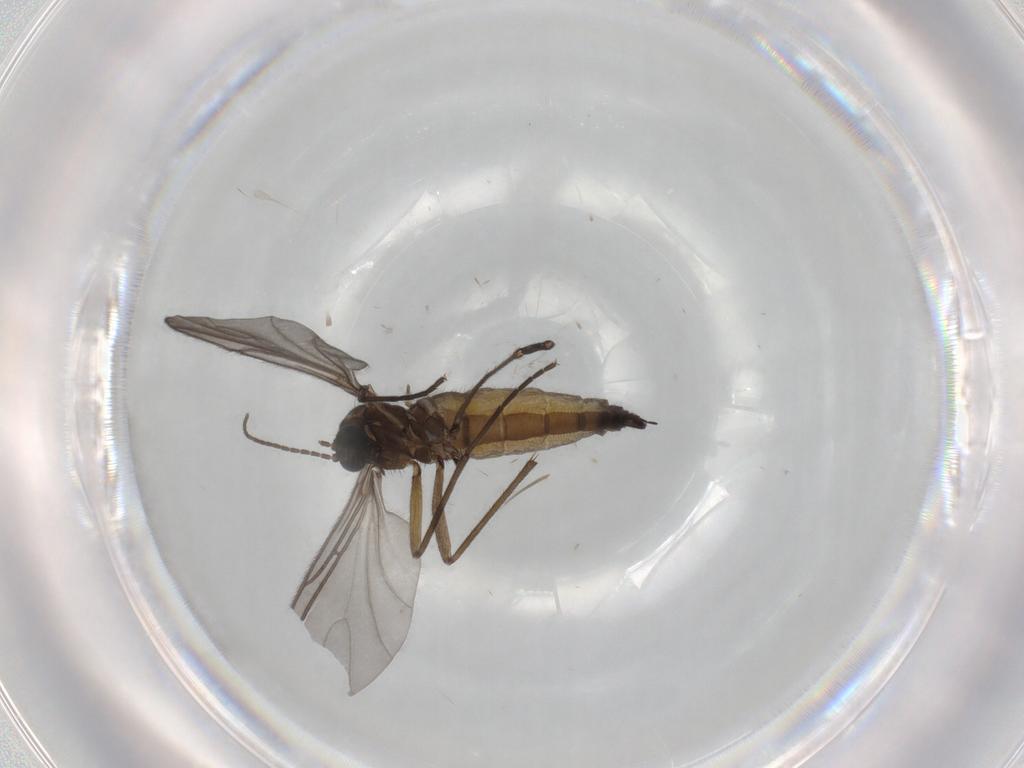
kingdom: Animalia
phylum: Arthropoda
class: Insecta
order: Diptera
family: Sciaridae
